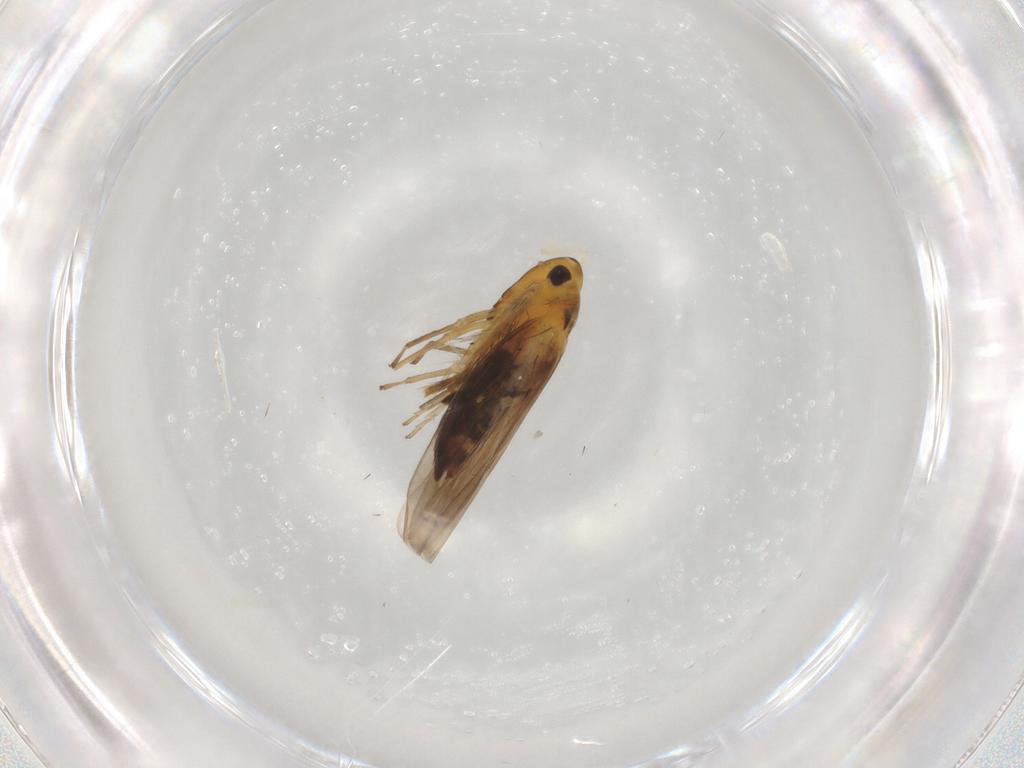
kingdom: Animalia
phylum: Arthropoda
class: Insecta
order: Hemiptera
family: Cicadellidae
